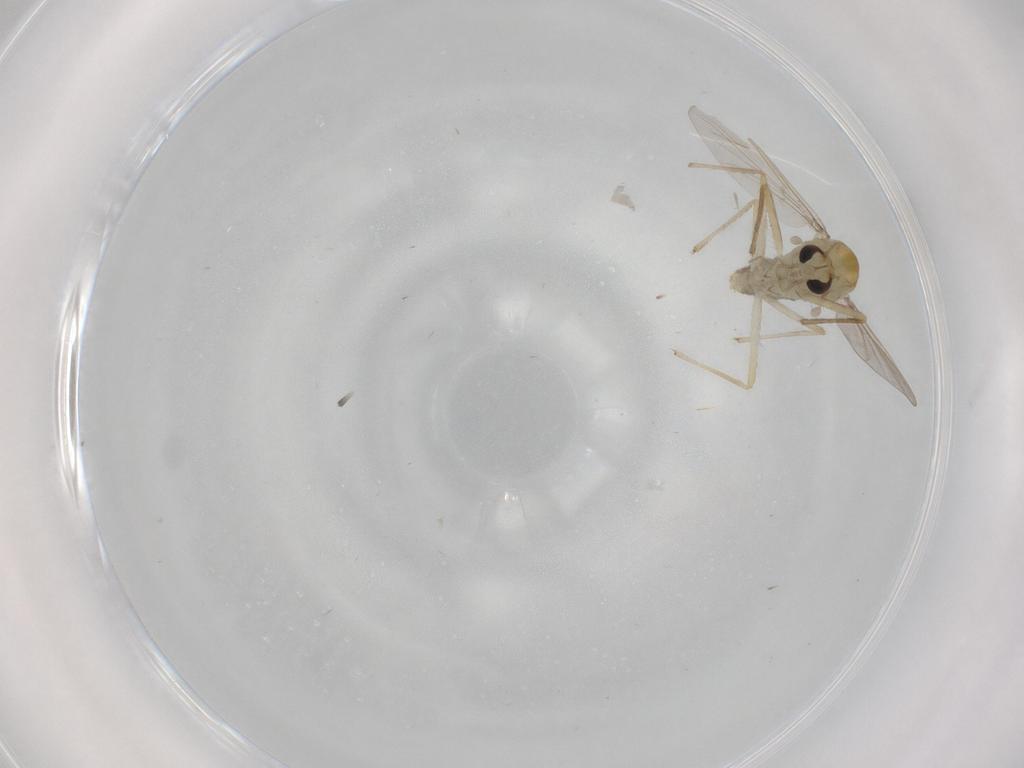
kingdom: Animalia
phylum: Arthropoda
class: Insecta
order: Diptera
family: Chironomidae
